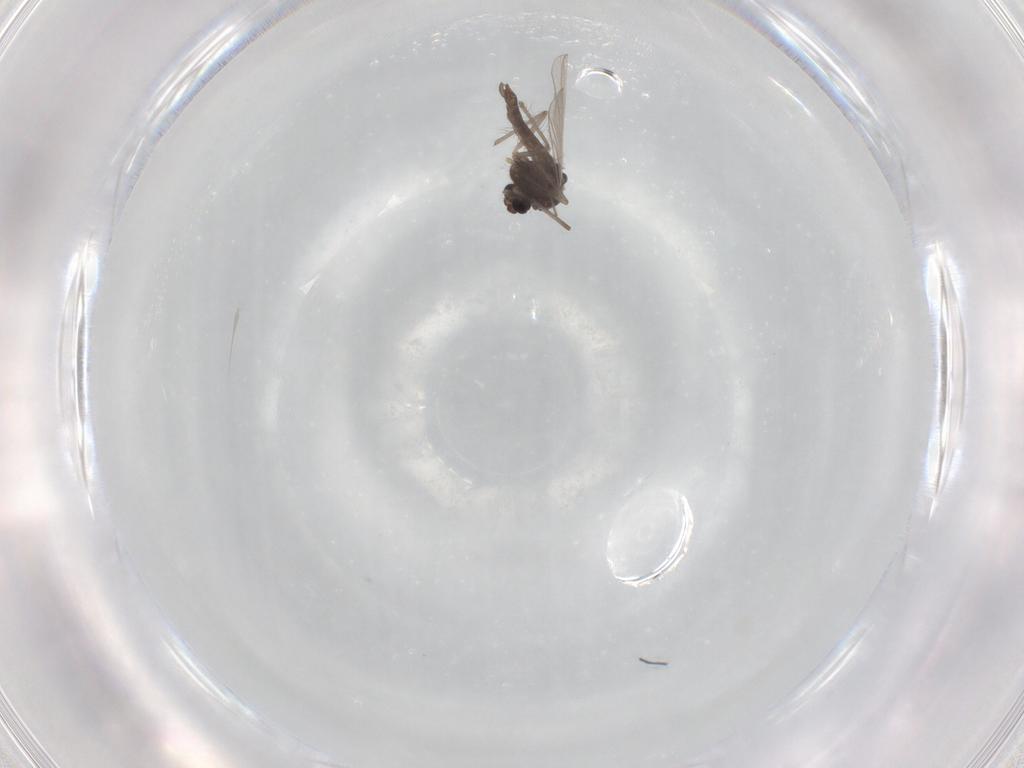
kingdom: Animalia
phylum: Arthropoda
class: Insecta
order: Diptera
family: Chironomidae
